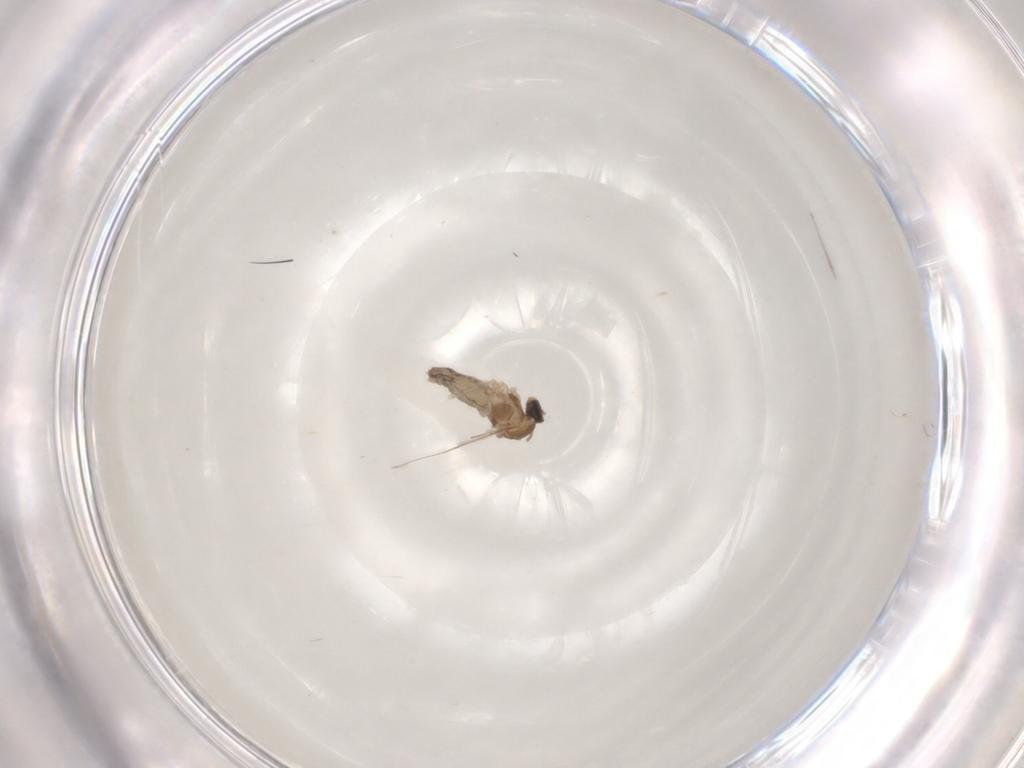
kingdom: Animalia
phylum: Arthropoda
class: Insecta
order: Diptera
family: Cecidomyiidae
